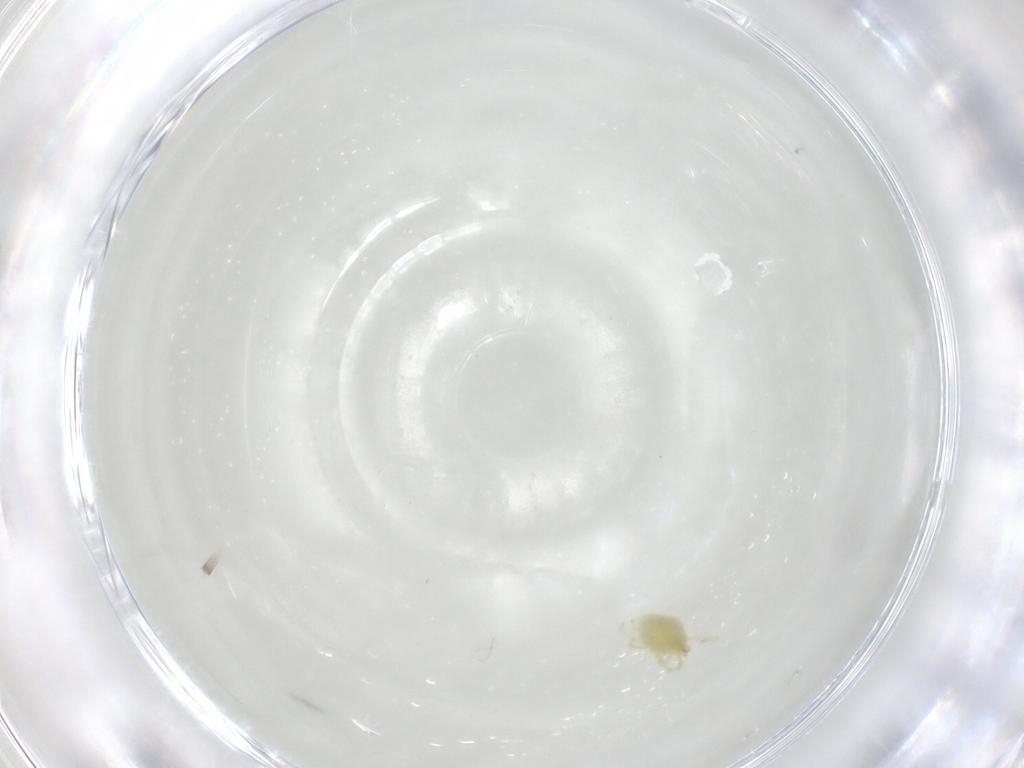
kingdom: Animalia
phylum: Arthropoda
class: Arachnida
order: Trombidiformes
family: Erythraeidae
